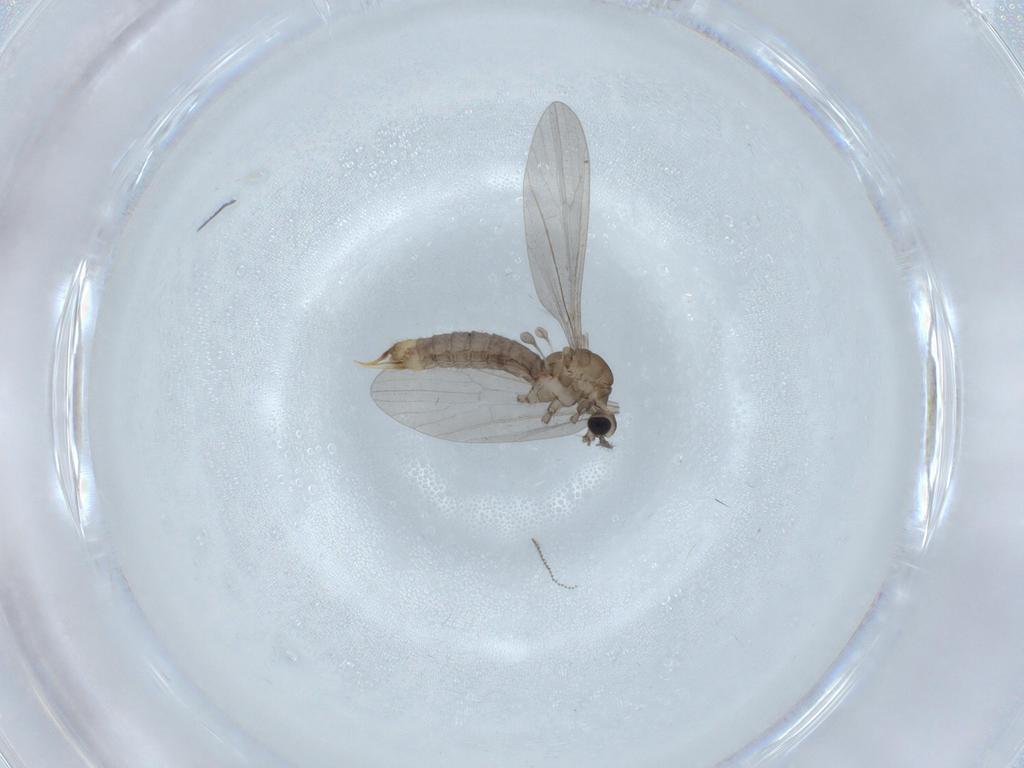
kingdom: Animalia
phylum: Arthropoda
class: Insecta
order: Diptera
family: Limoniidae
